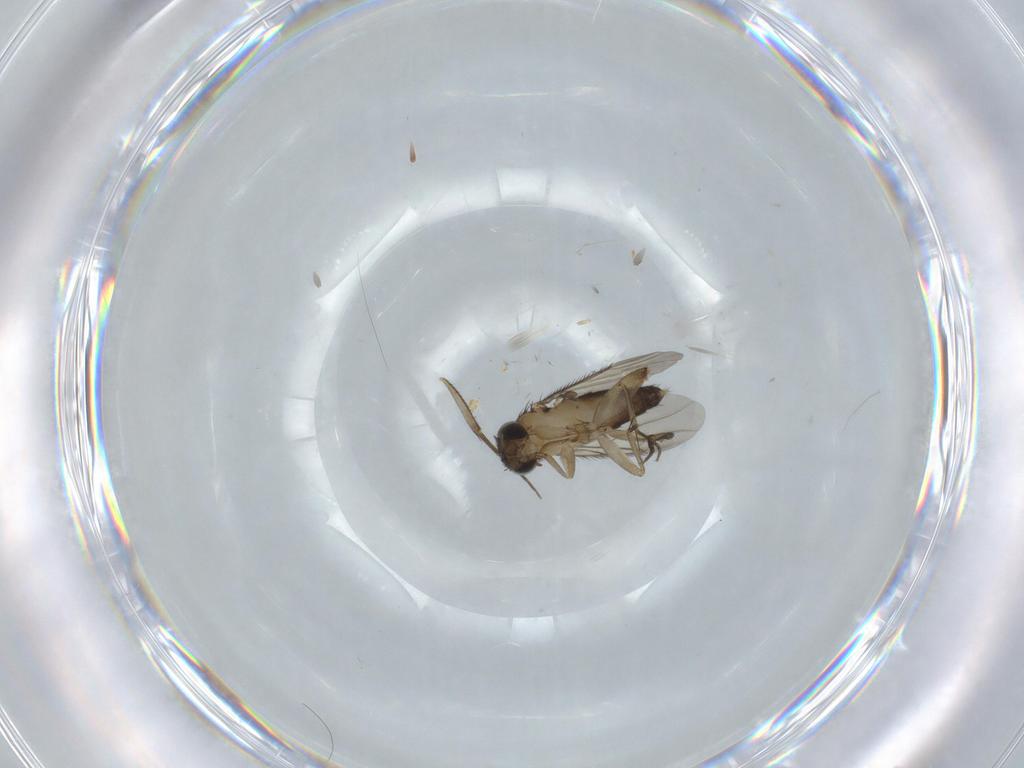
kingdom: Animalia
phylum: Arthropoda
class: Insecta
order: Diptera
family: Phoridae
